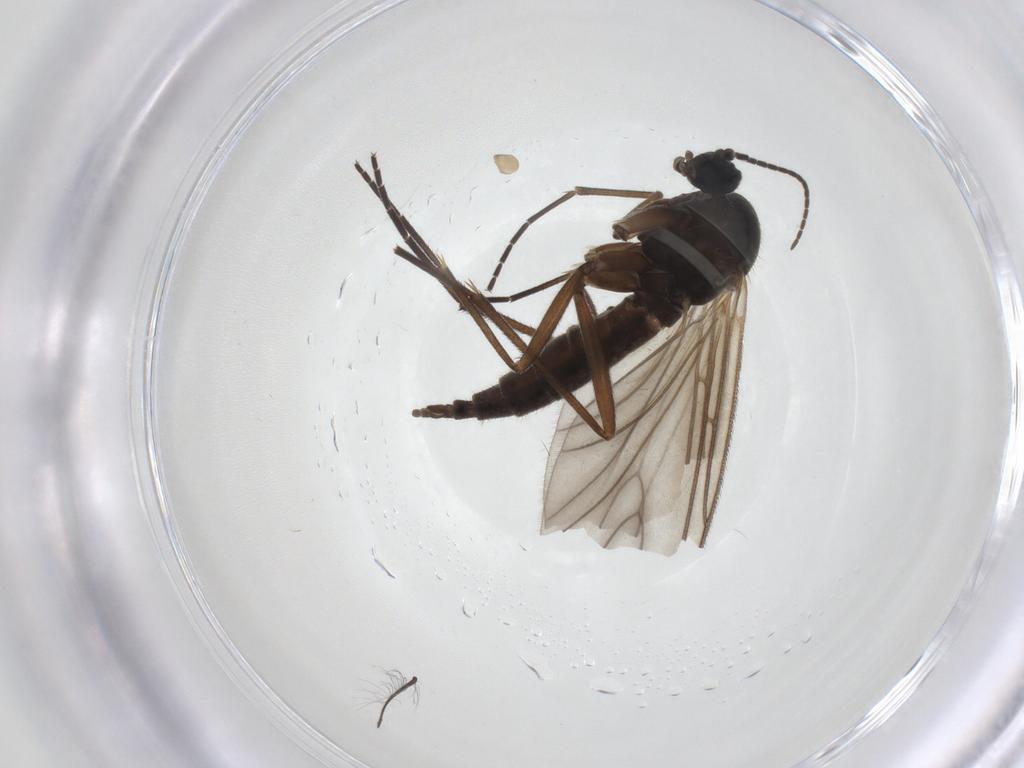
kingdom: Animalia
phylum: Arthropoda
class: Insecta
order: Diptera
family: Sciaridae
